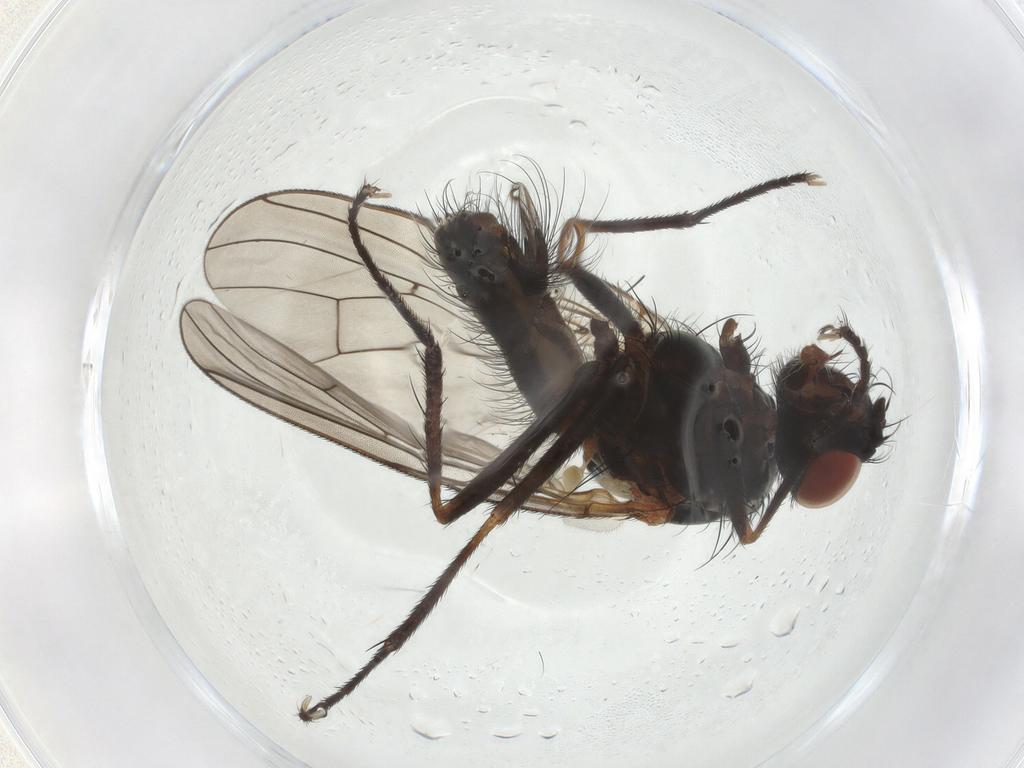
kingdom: Animalia
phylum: Arthropoda
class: Insecta
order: Diptera
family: Anthomyiidae
